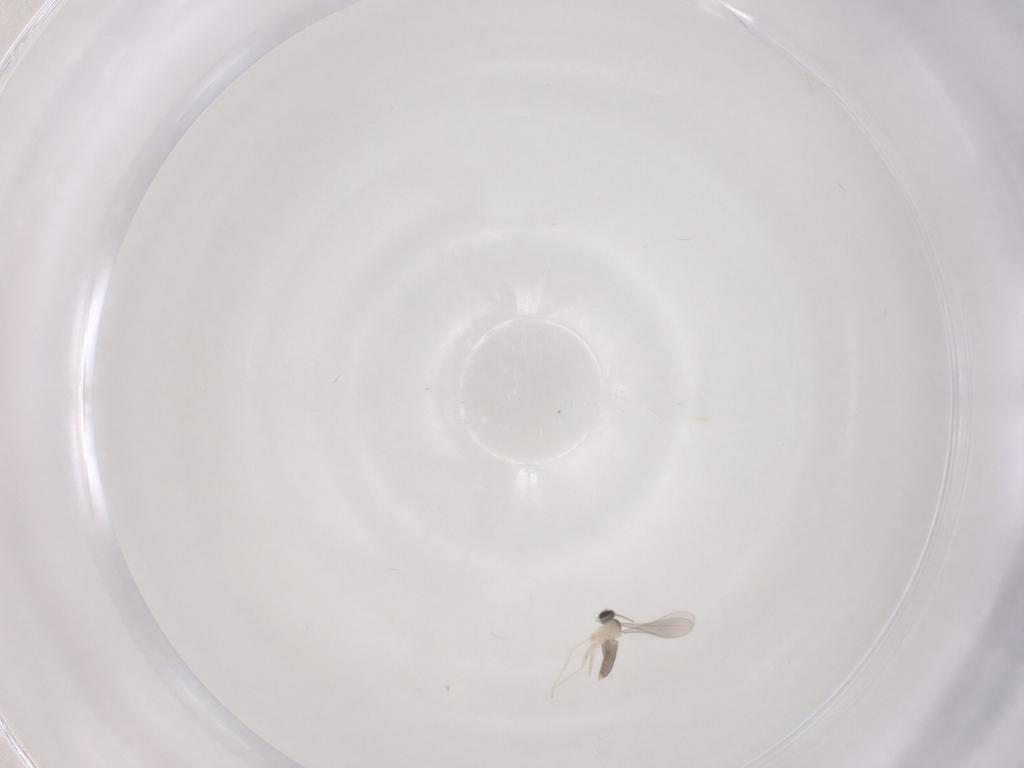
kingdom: Animalia
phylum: Arthropoda
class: Insecta
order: Diptera
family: Cecidomyiidae
